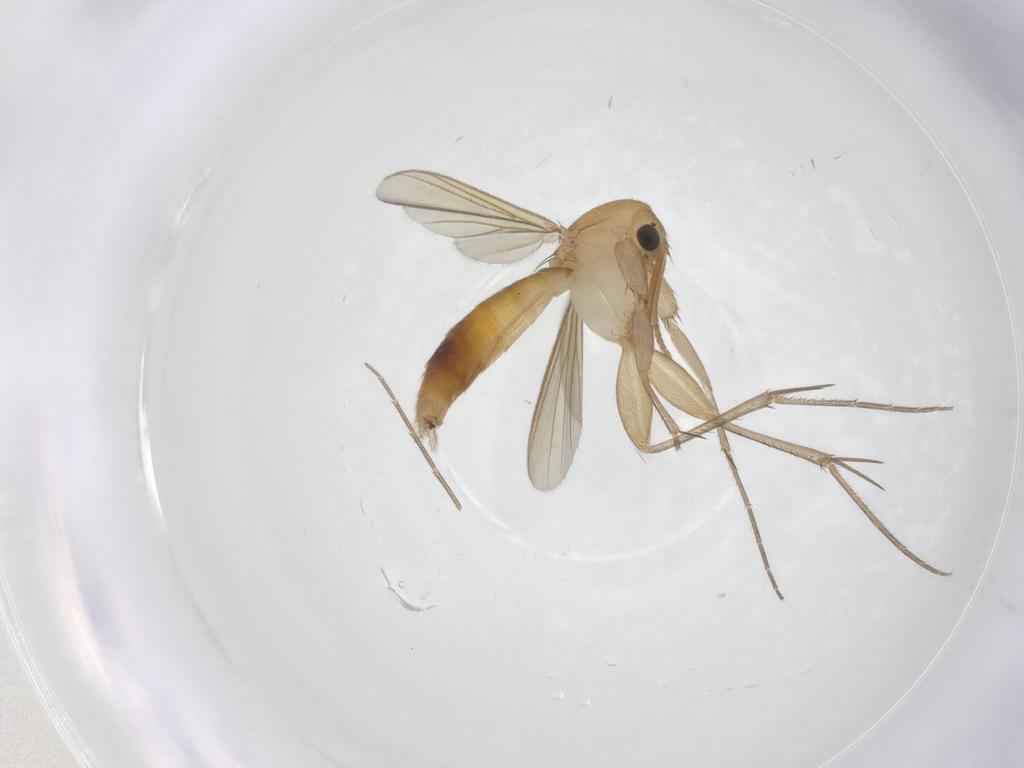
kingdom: Animalia
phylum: Arthropoda
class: Insecta
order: Diptera
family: Mycetophilidae
